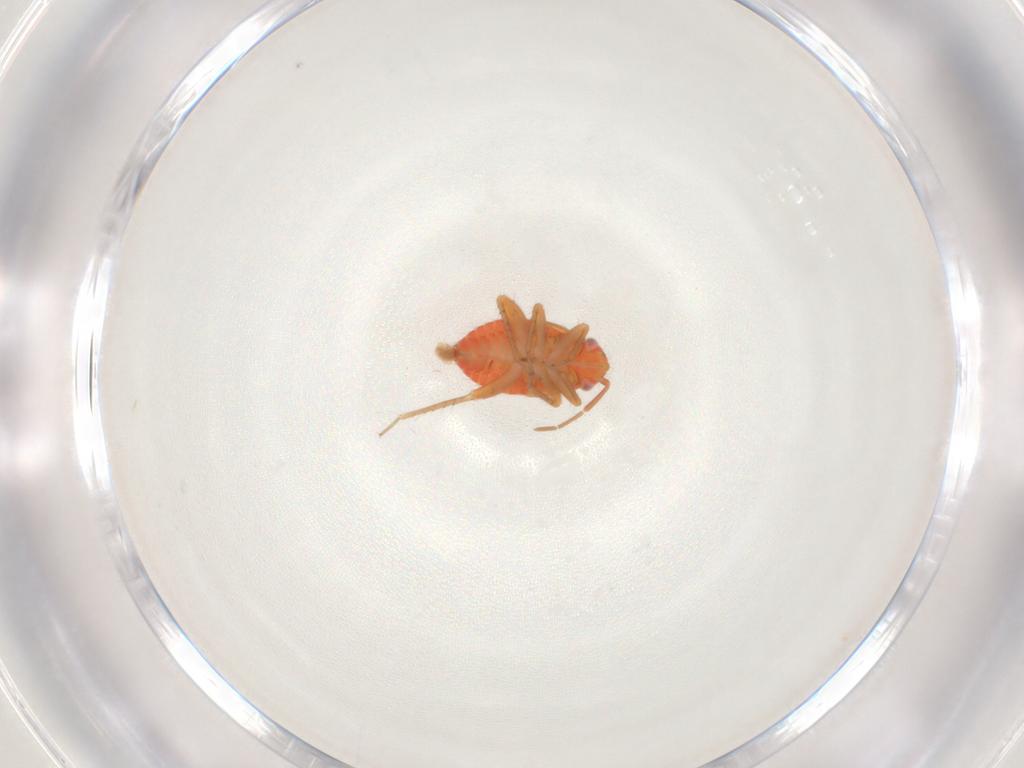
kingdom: Animalia
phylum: Arthropoda
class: Insecta
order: Hemiptera
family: Miridae
